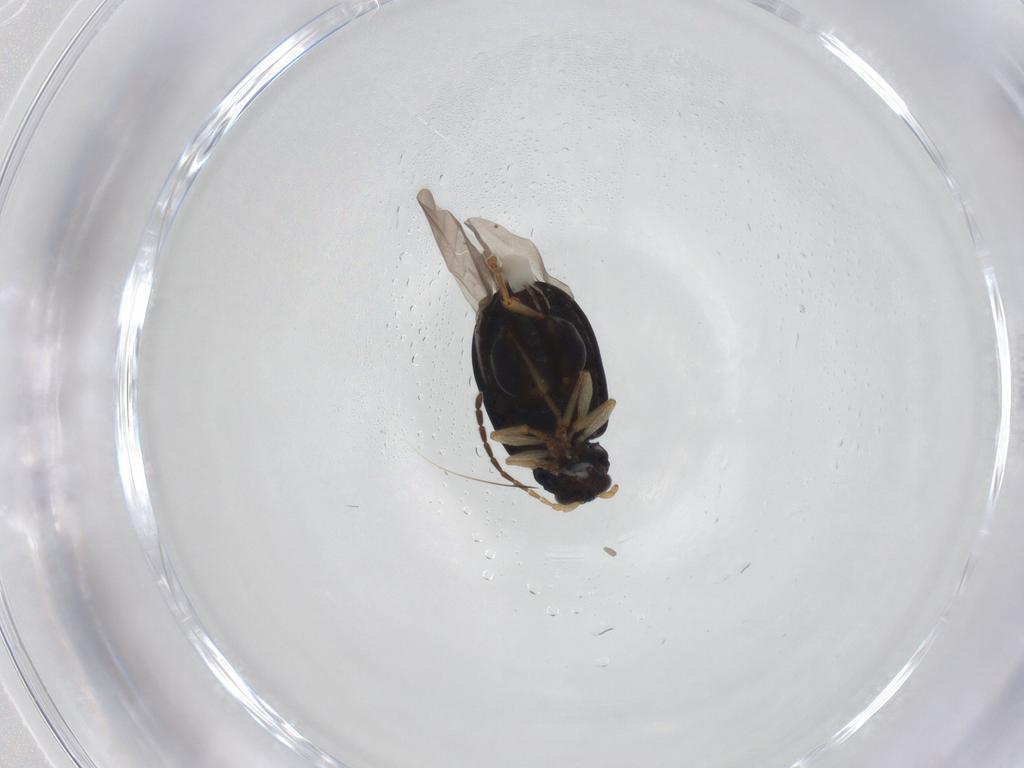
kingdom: Animalia
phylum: Arthropoda
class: Insecta
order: Coleoptera
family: Chrysomelidae
